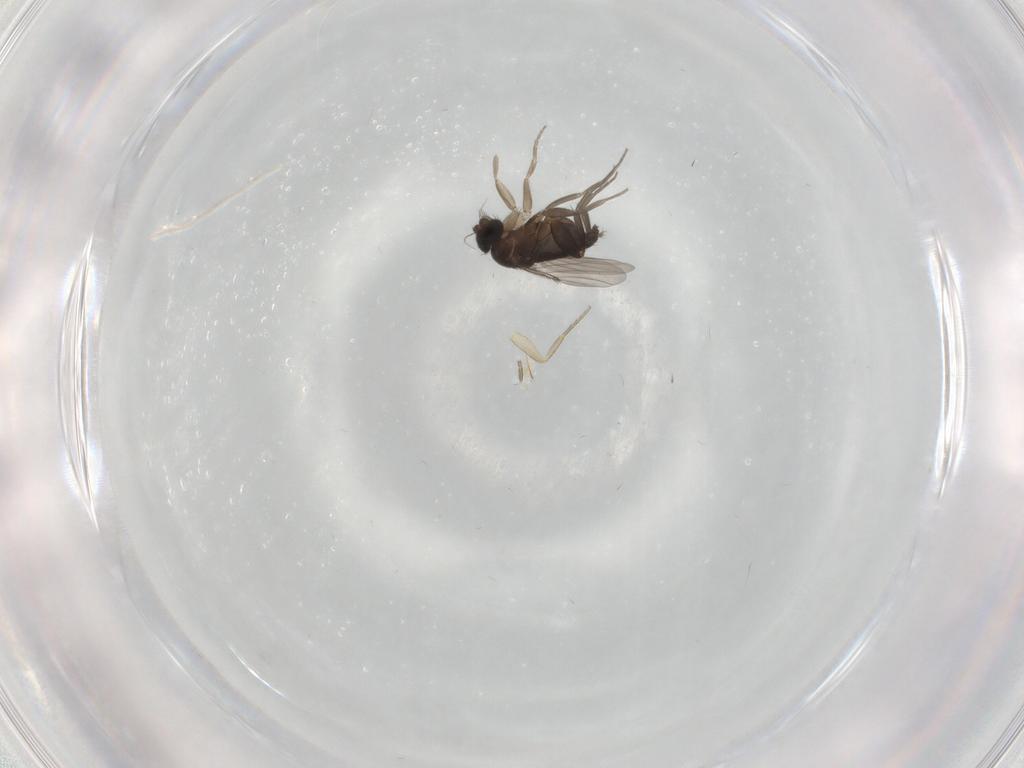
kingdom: Animalia
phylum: Arthropoda
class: Insecta
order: Diptera
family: Phoridae
